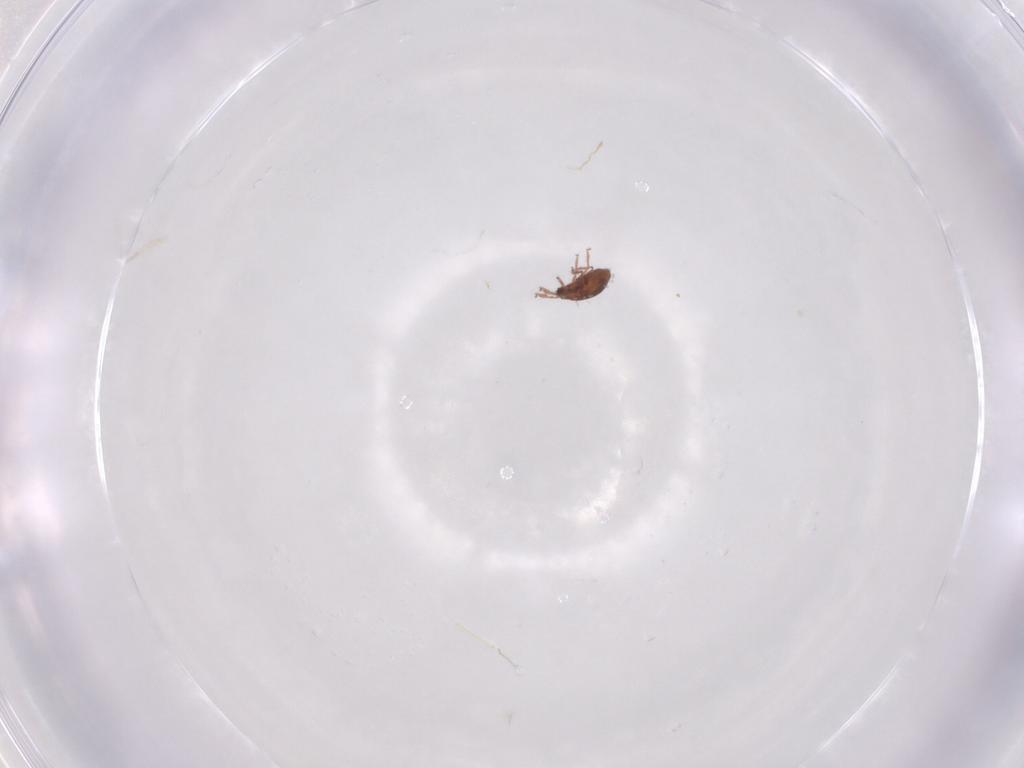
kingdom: Animalia
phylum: Arthropoda
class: Arachnida
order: Sarcoptiformes
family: Scheloribatidae
